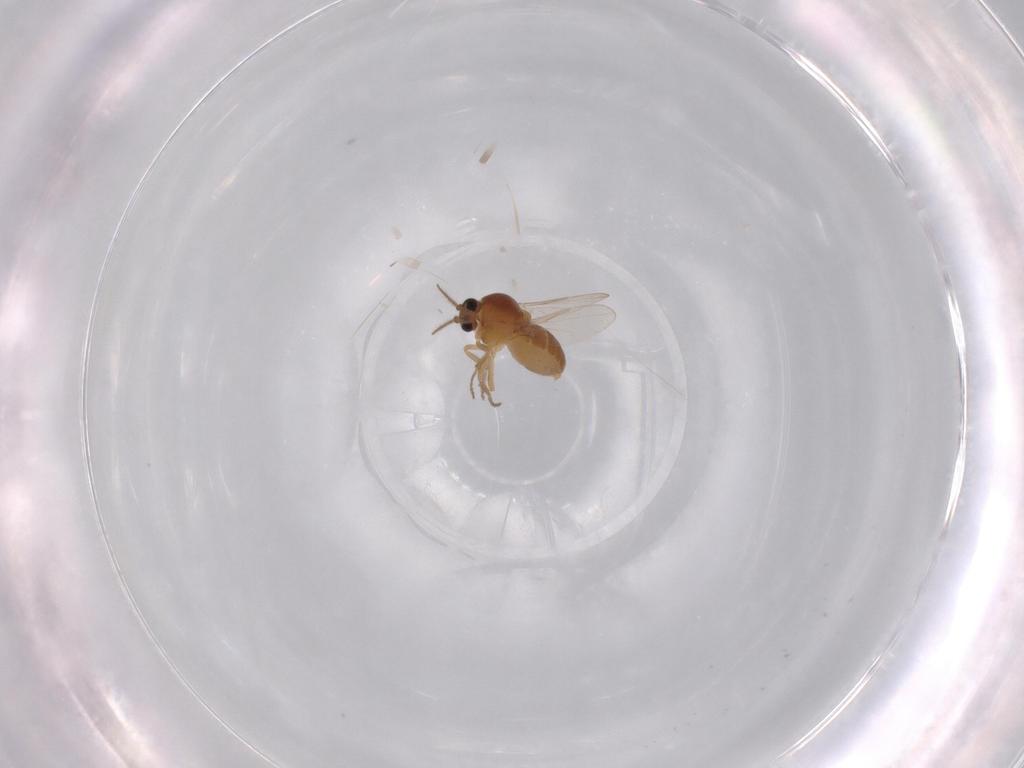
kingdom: Animalia
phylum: Arthropoda
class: Insecta
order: Diptera
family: Ceratopogonidae
